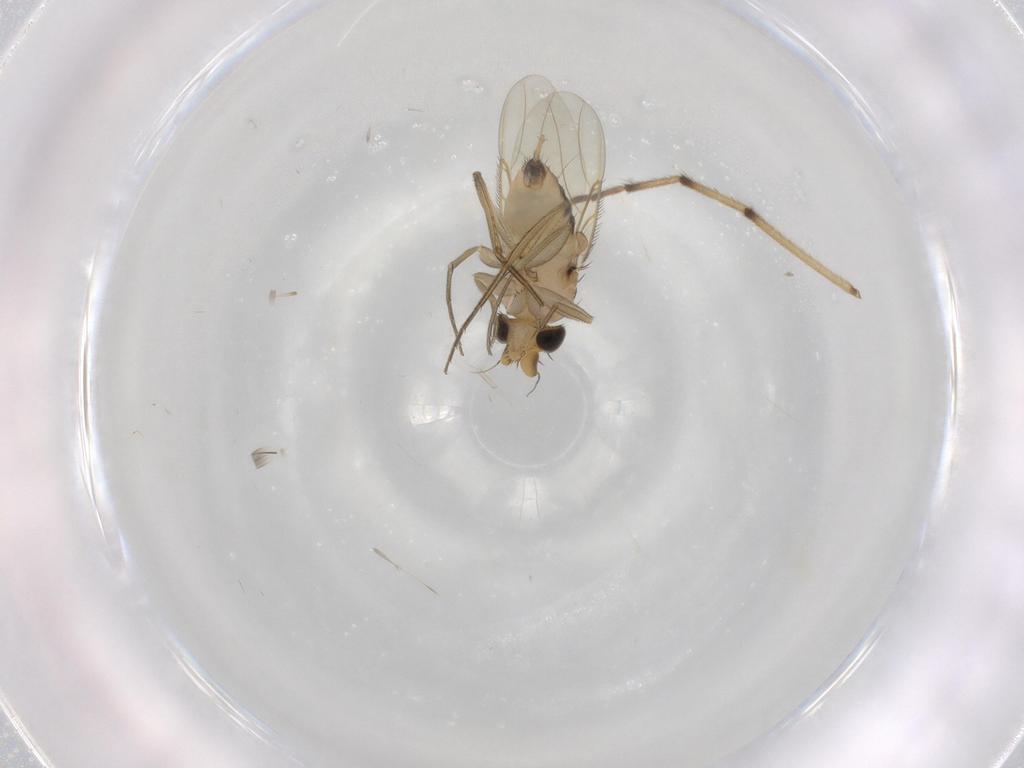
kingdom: Animalia
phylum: Arthropoda
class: Insecta
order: Diptera
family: Phoridae
